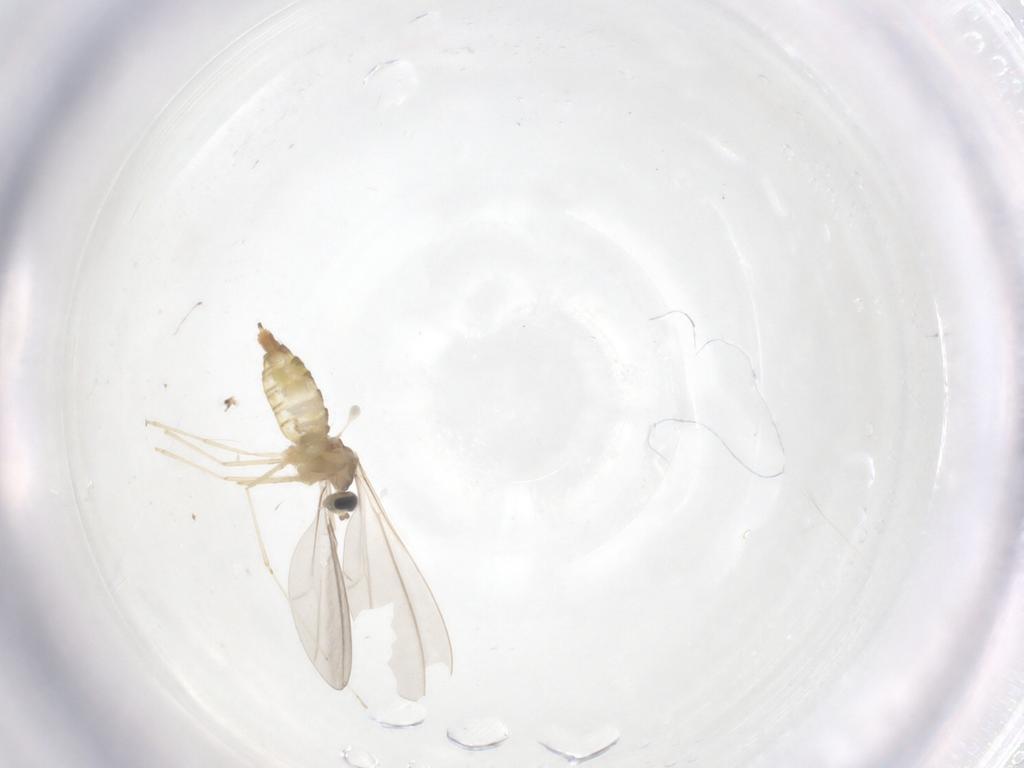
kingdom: Animalia
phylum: Arthropoda
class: Insecta
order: Diptera
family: Cecidomyiidae
